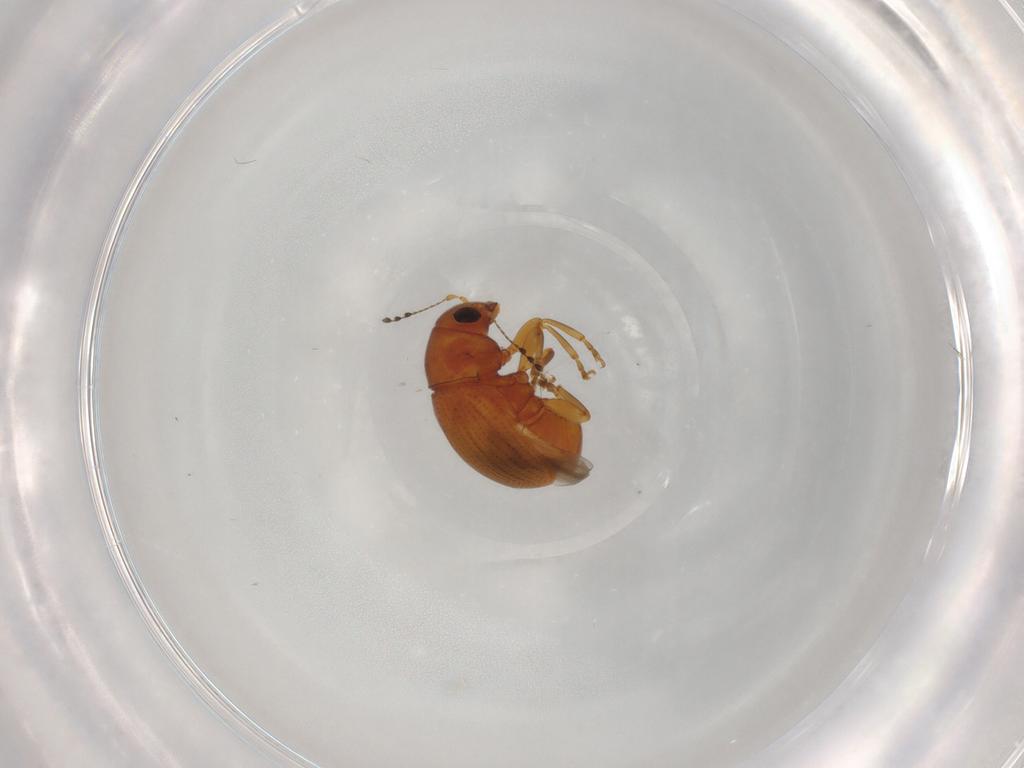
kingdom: Animalia
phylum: Arthropoda
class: Insecta
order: Coleoptera
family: Anthribidae
